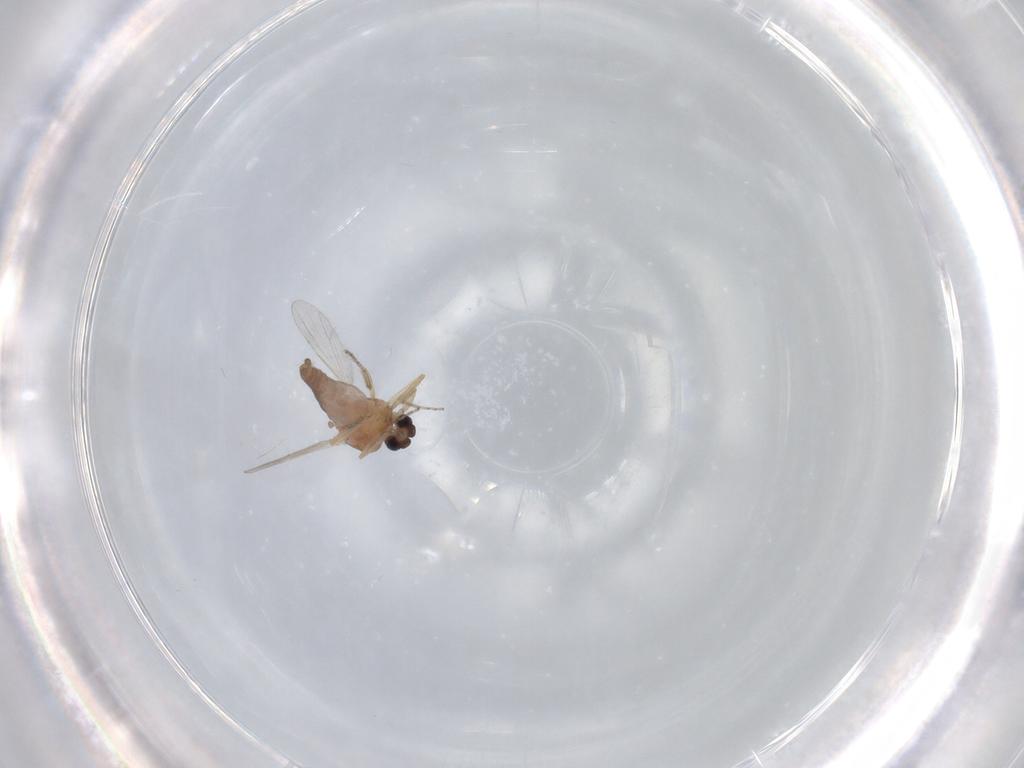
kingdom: Animalia
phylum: Arthropoda
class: Insecta
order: Diptera
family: Ceratopogonidae
